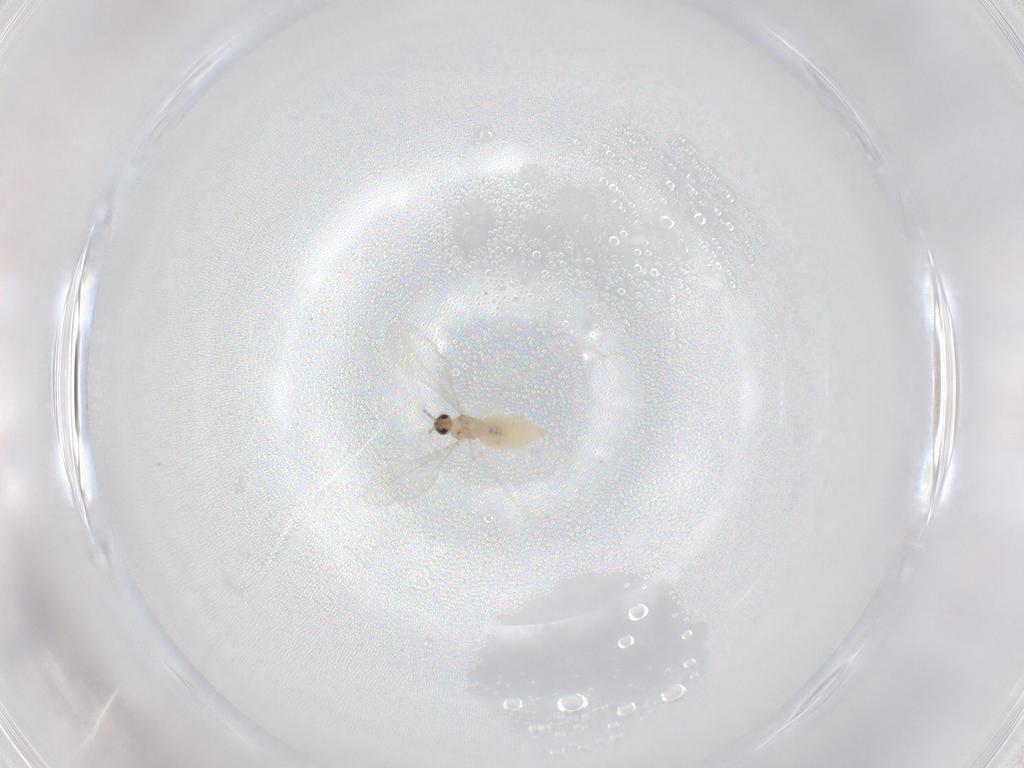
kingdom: Animalia
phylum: Arthropoda
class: Insecta
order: Diptera
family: Cecidomyiidae
